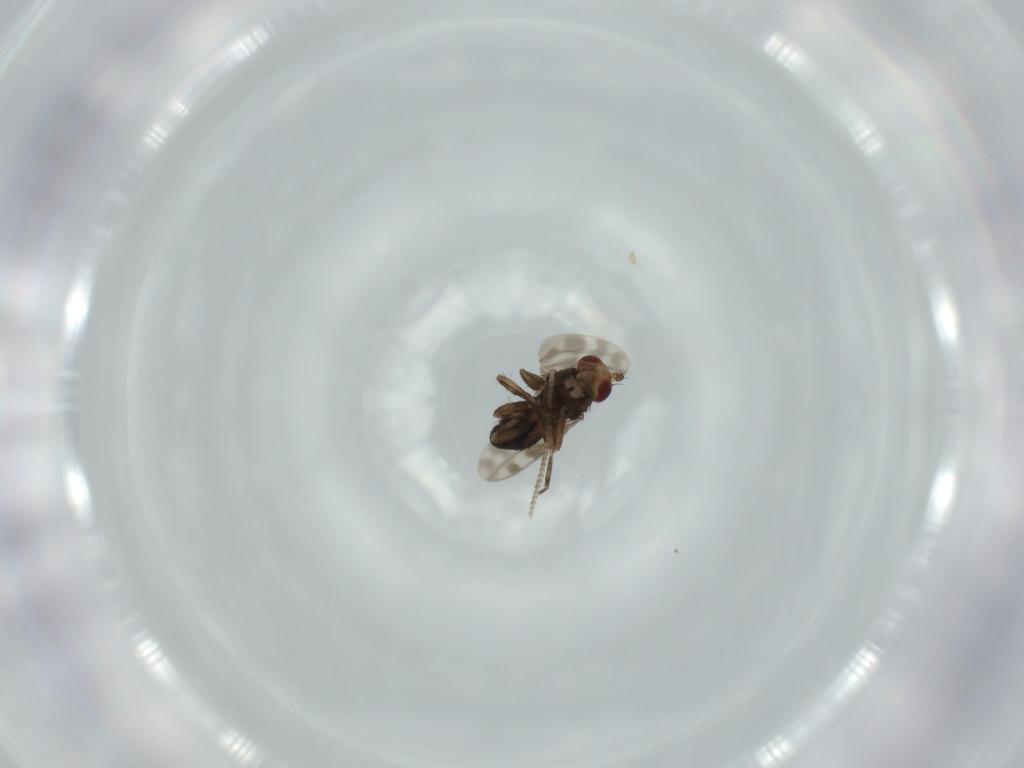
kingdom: Animalia
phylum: Arthropoda
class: Insecta
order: Diptera
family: Sphaeroceridae
